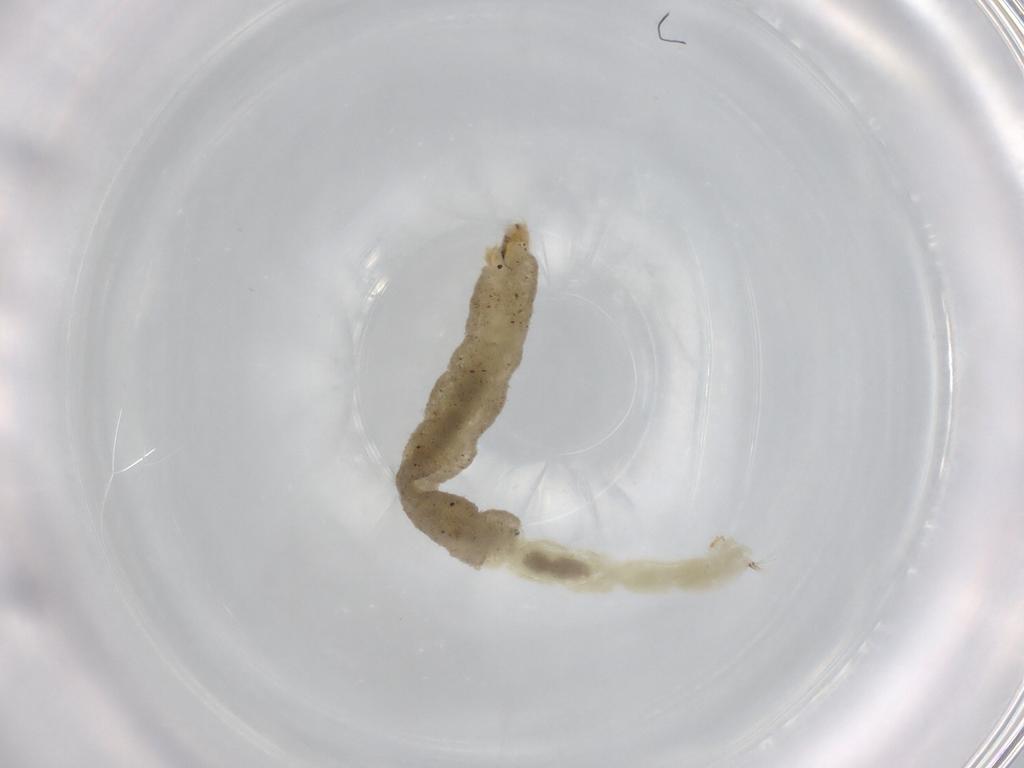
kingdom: Animalia
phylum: Arthropoda
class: Insecta
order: Diptera
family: Chironomidae
